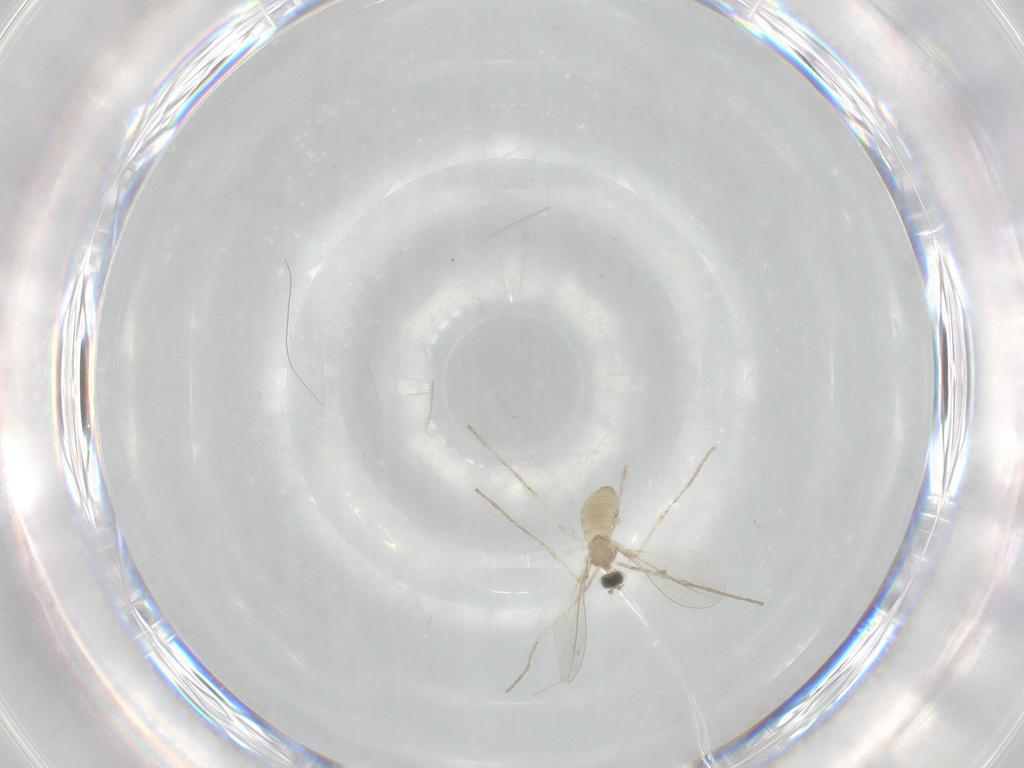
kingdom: Animalia
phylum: Arthropoda
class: Insecta
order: Diptera
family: Cecidomyiidae
